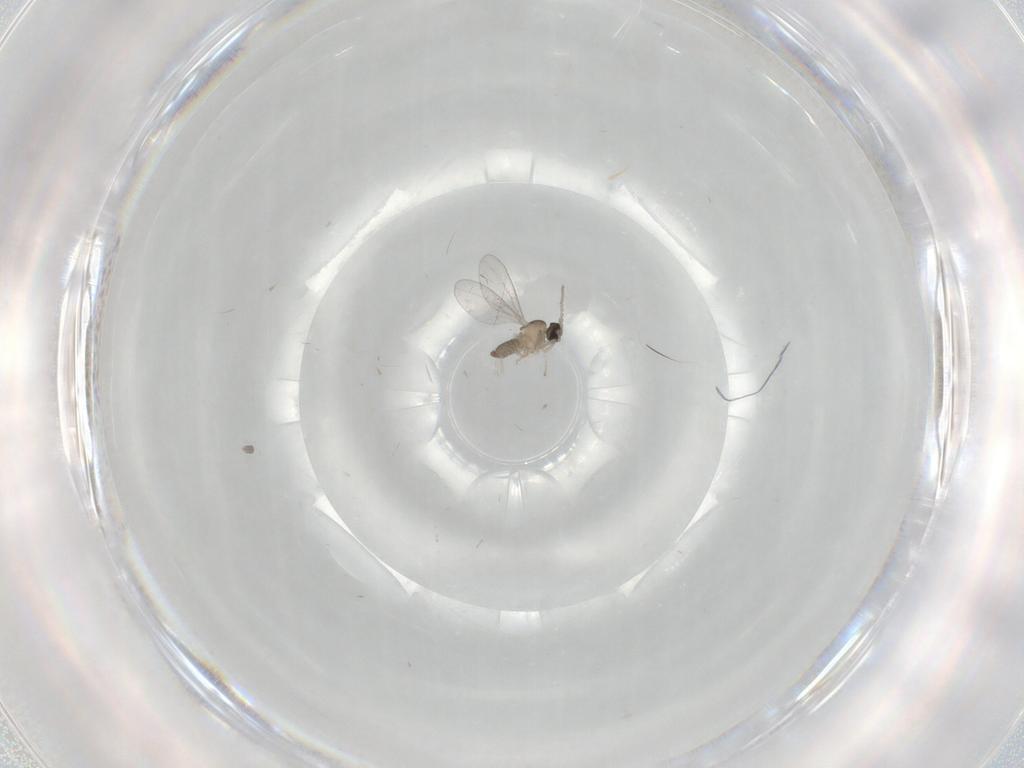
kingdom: Animalia
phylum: Arthropoda
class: Insecta
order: Diptera
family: Cecidomyiidae
